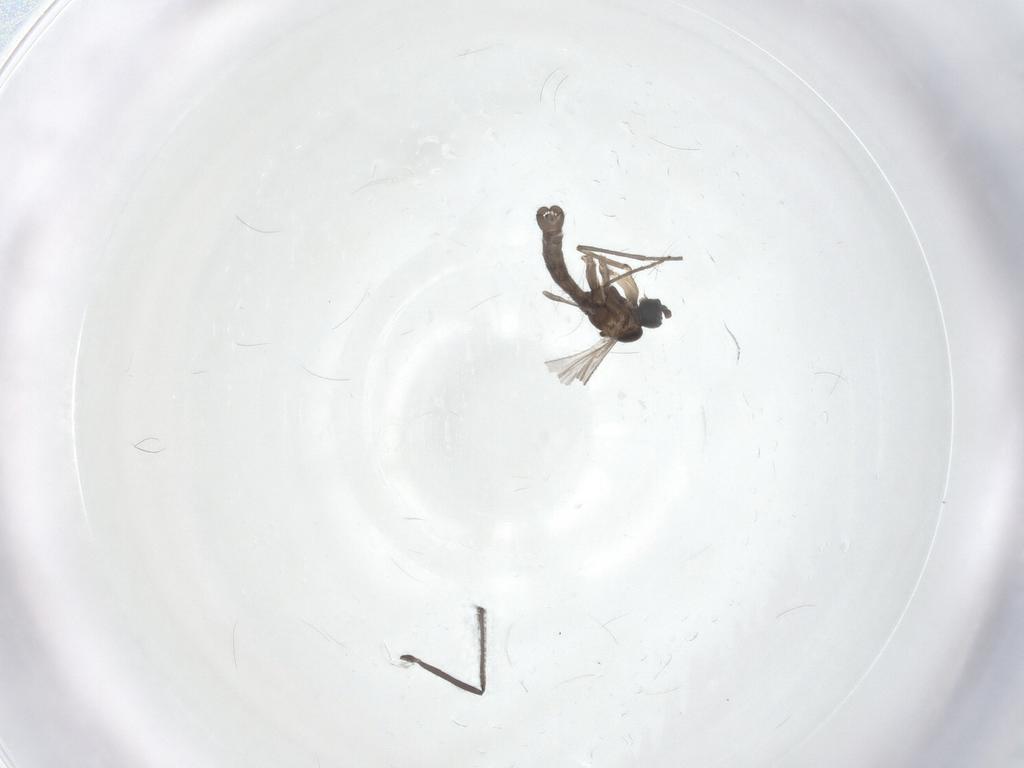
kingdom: Animalia
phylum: Arthropoda
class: Insecta
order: Diptera
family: Sciaridae
